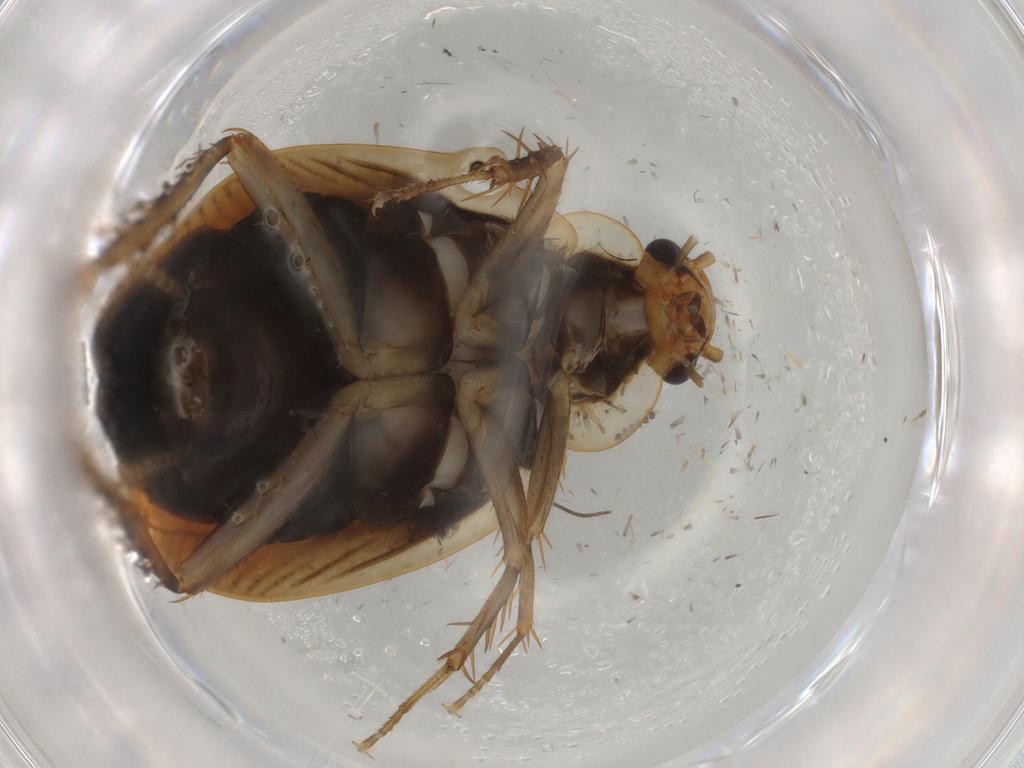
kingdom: Animalia
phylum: Arthropoda
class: Insecta
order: Blattodea
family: Ectobiidae
